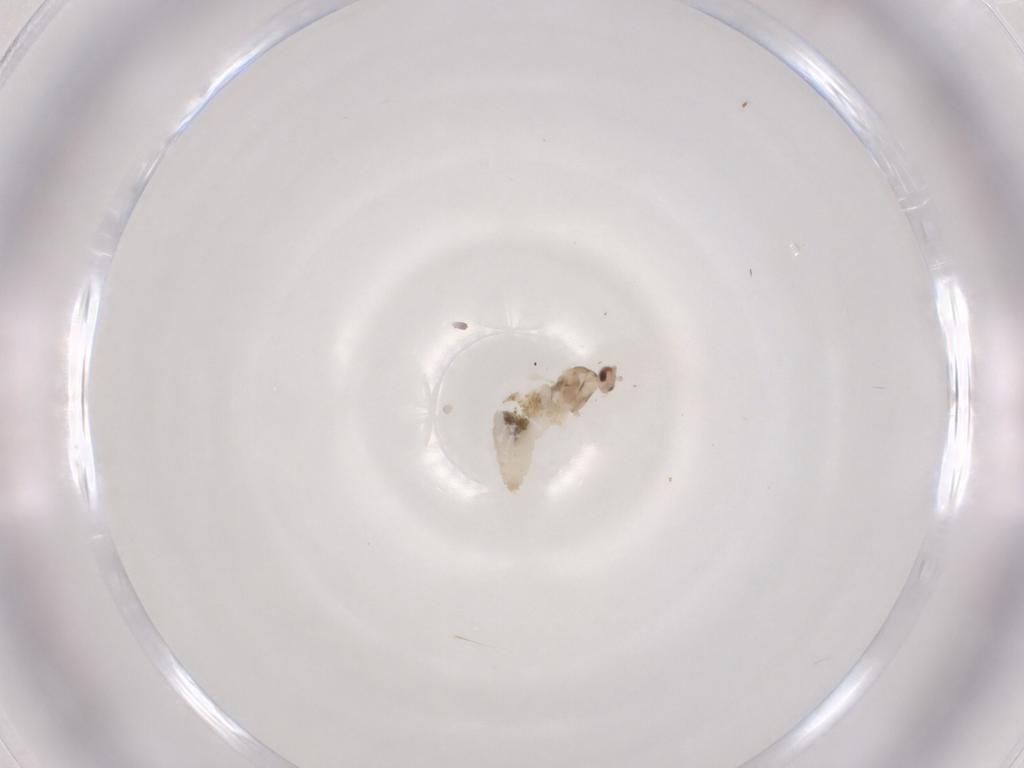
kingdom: Animalia
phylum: Arthropoda
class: Insecta
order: Diptera
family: Cecidomyiidae
